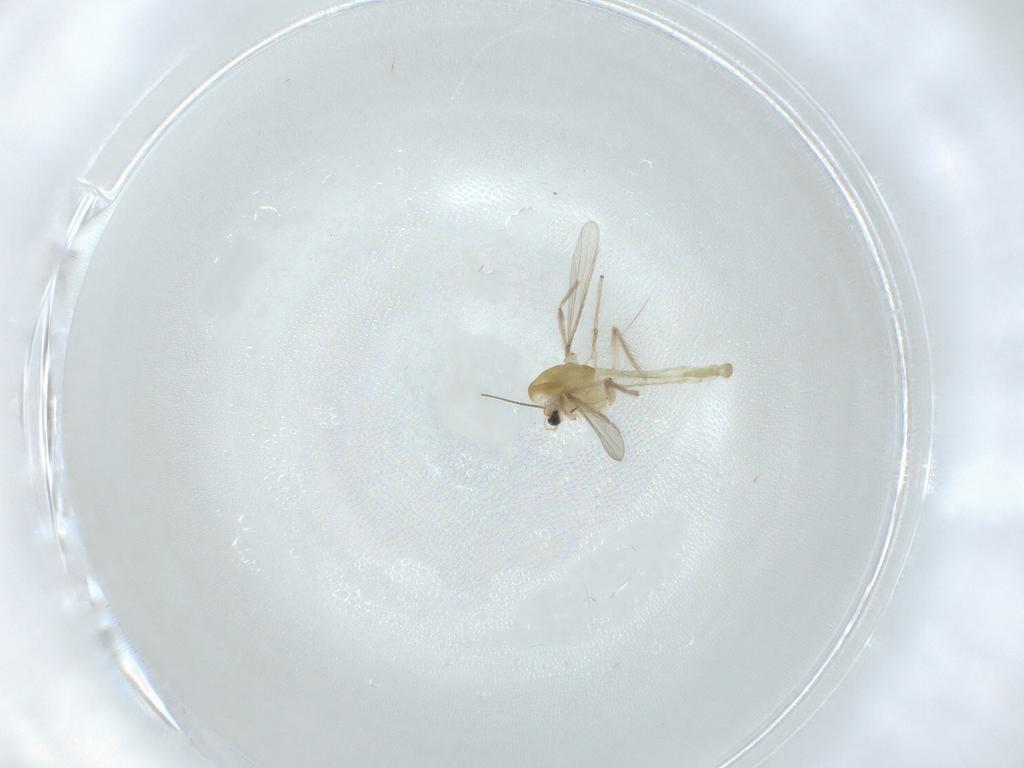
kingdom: Animalia
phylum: Arthropoda
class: Insecta
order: Diptera
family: Chironomidae
